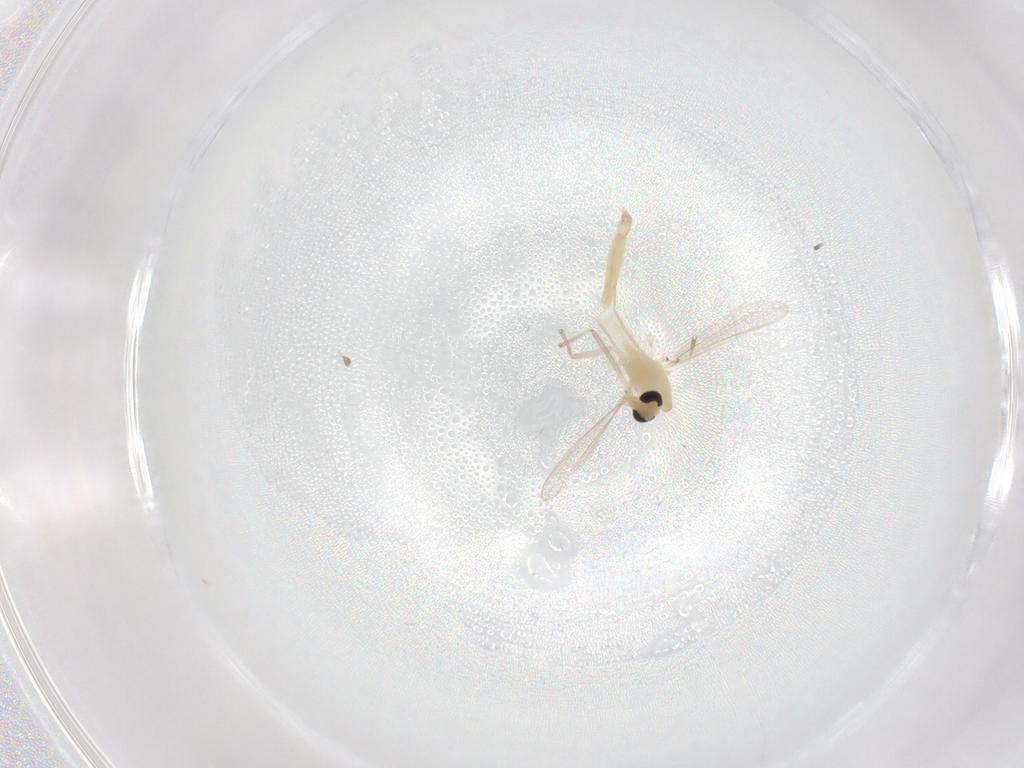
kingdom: Animalia
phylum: Arthropoda
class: Insecta
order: Diptera
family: Chironomidae
